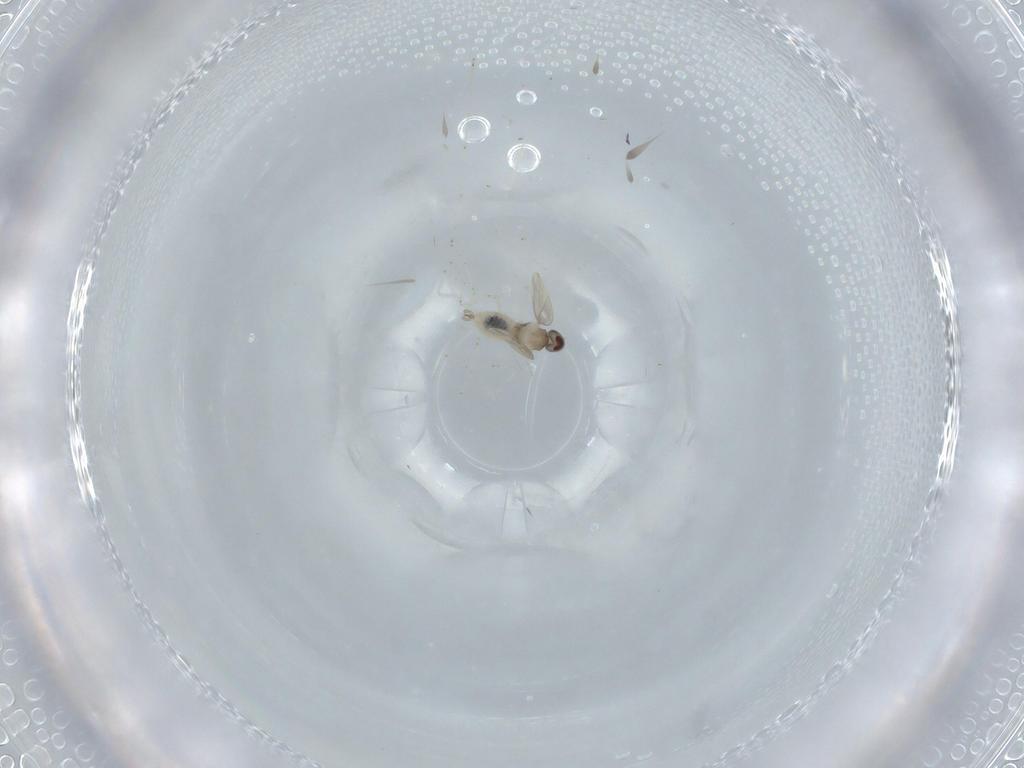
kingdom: Animalia
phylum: Arthropoda
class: Insecta
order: Diptera
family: Cecidomyiidae
